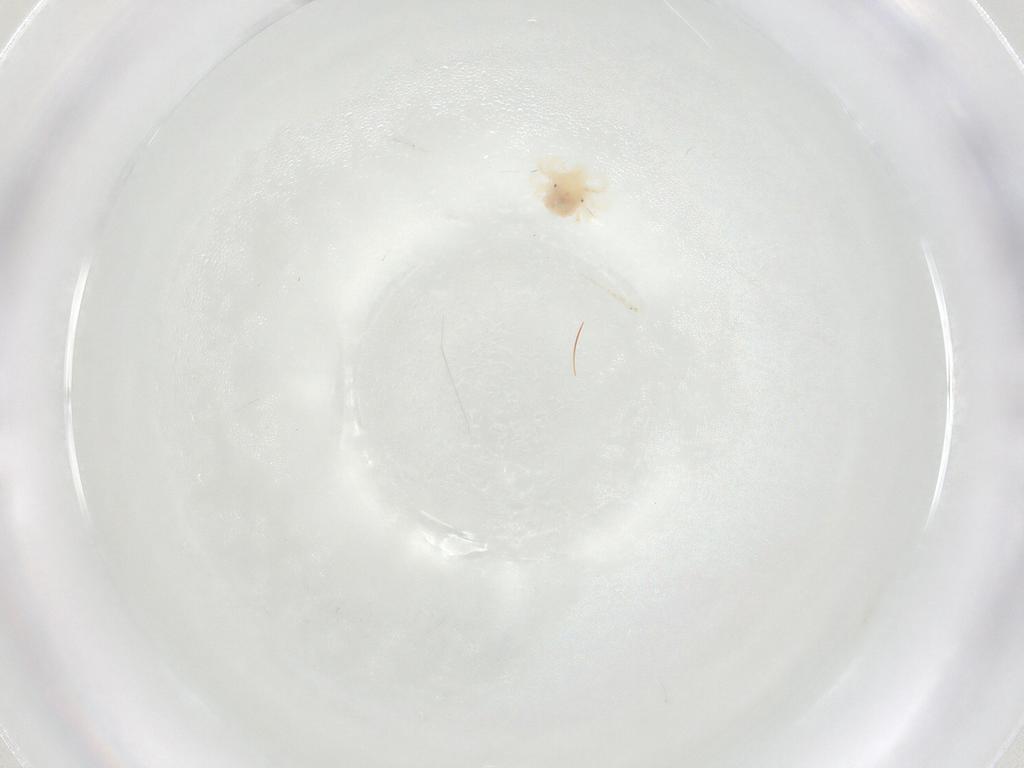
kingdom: Animalia
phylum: Arthropoda
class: Arachnida
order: Trombidiformes
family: Anystidae
